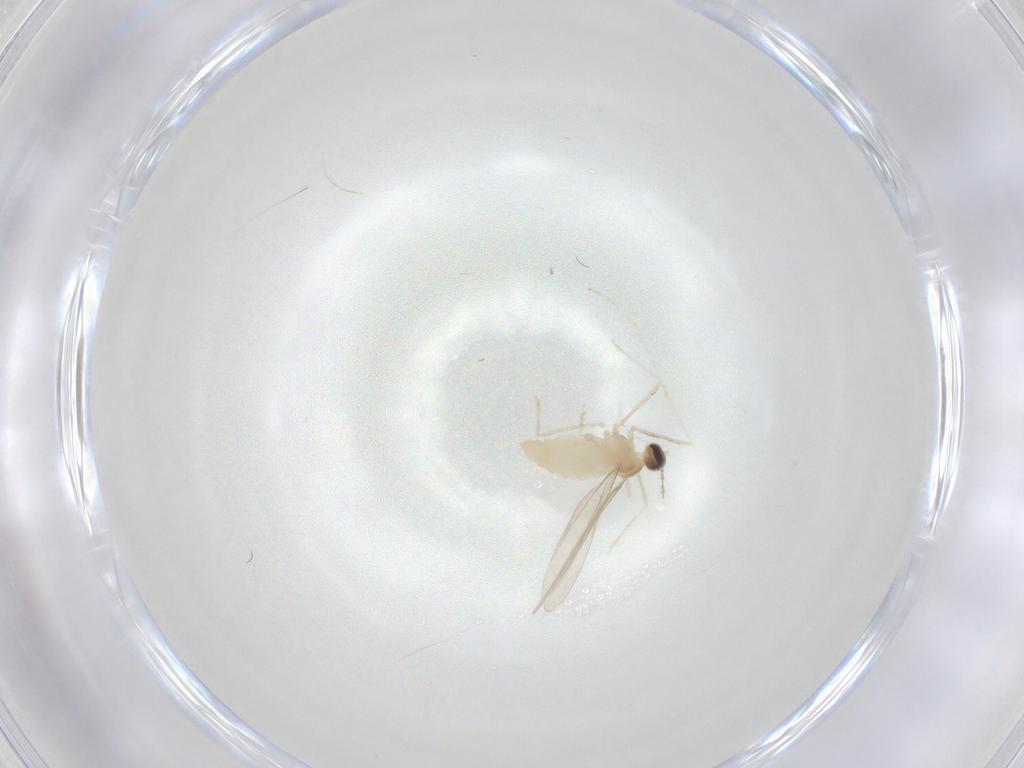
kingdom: Animalia
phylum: Arthropoda
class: Insecta
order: Diptera
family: Cecidomyiidae
